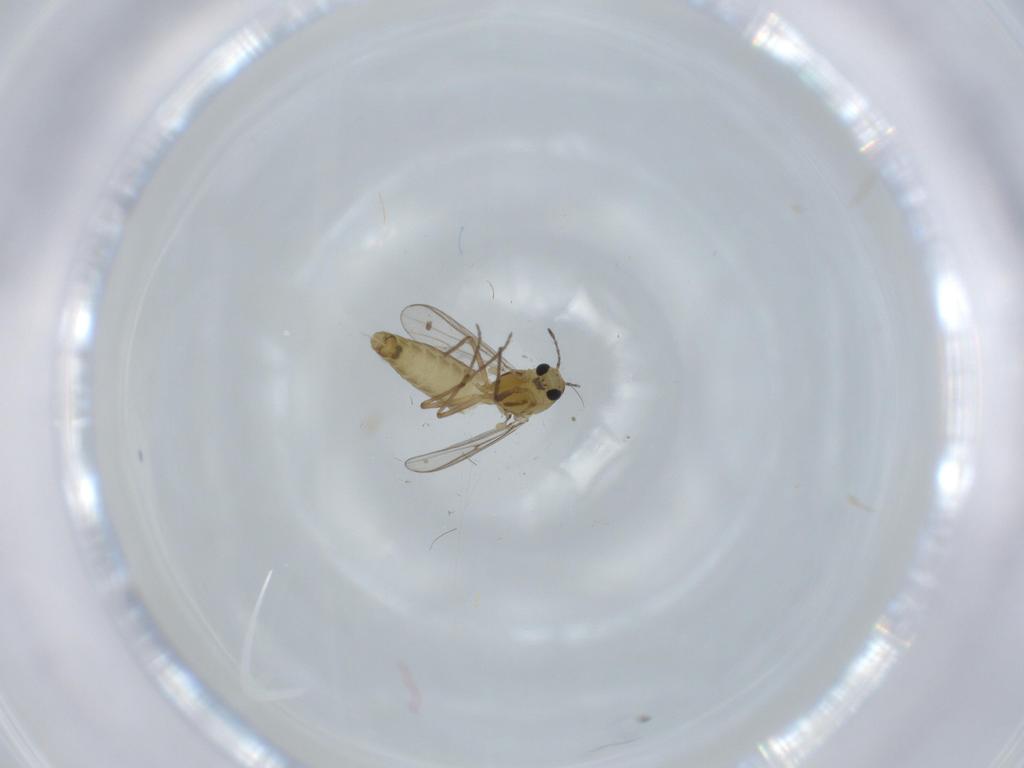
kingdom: Animalia
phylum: Arthropoda
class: Insecta
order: Diptera
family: Chironomidae
